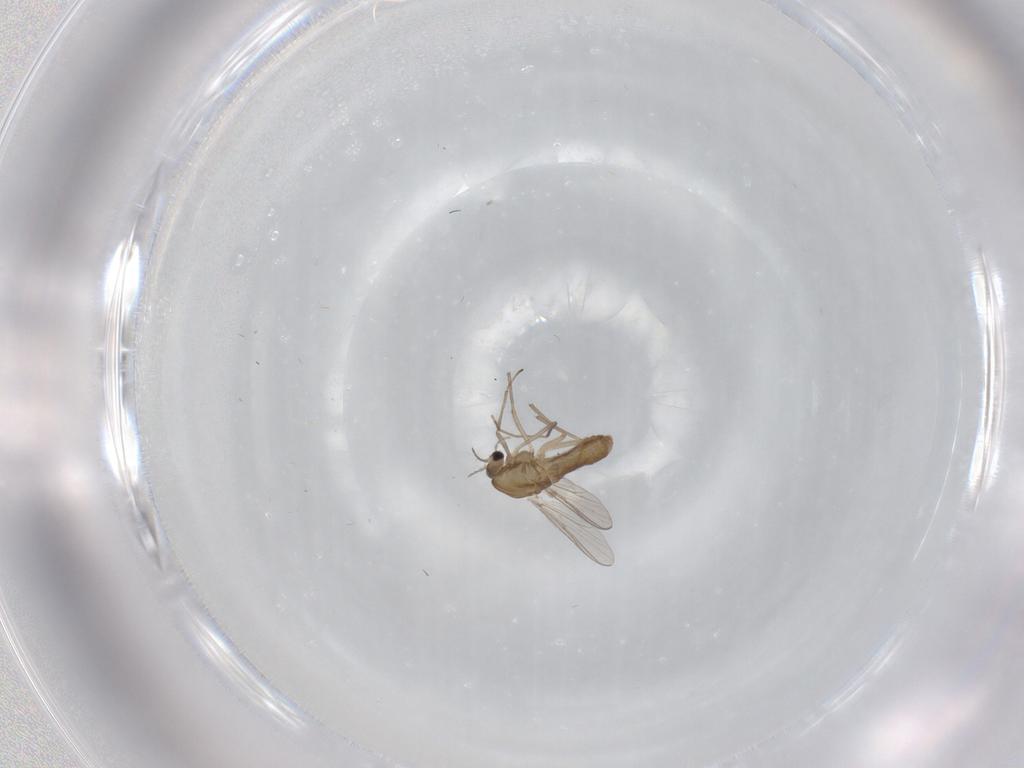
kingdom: Animalia
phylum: Arthropoda
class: Insecta
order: Diptera
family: Chironomidae
